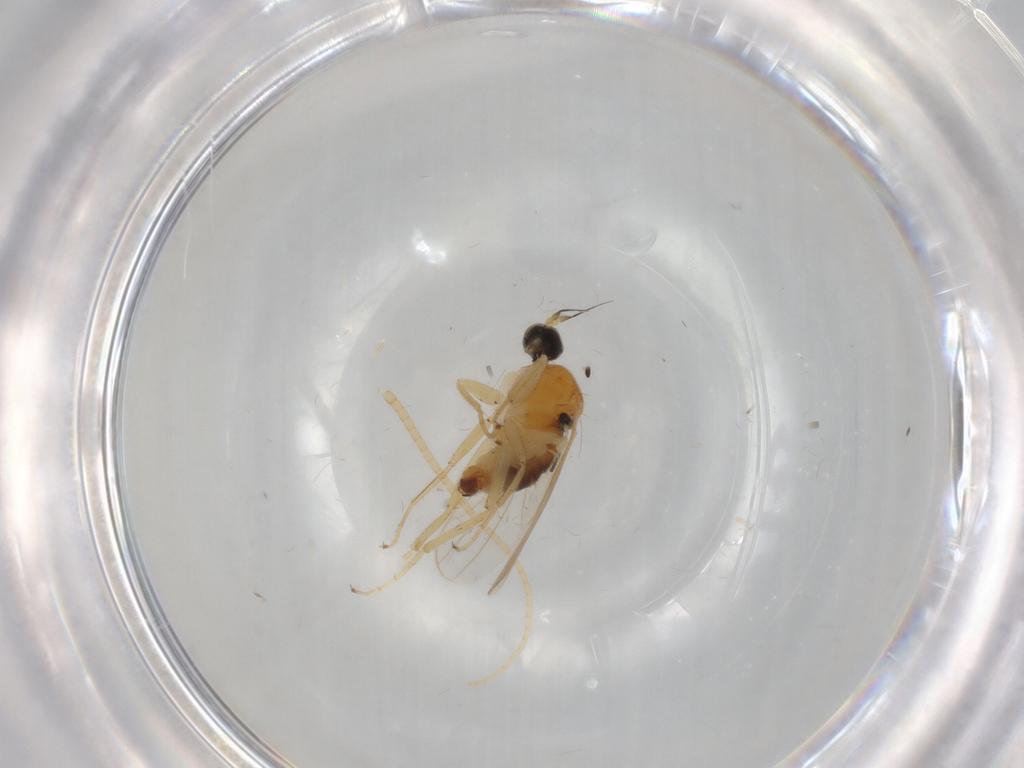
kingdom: Animalia
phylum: Arthropoda
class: Insecta
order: Diptera
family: Hybotidae
